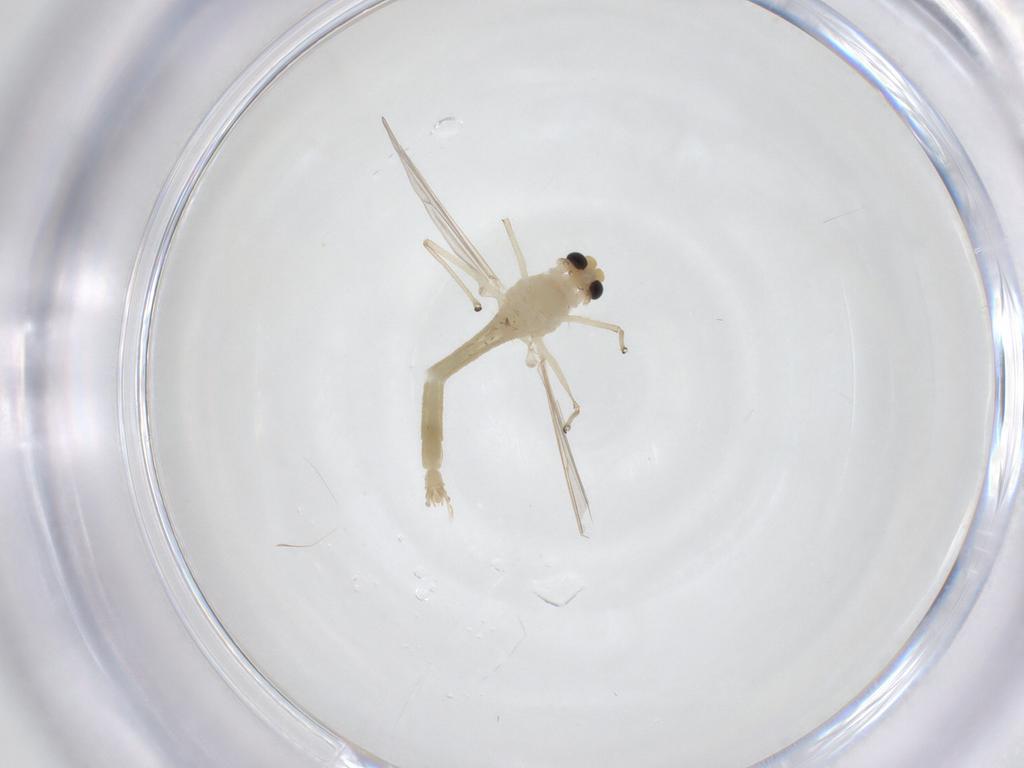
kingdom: Animalia
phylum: Arthropoda
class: Insecta
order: Diptera
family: Chironomidae
